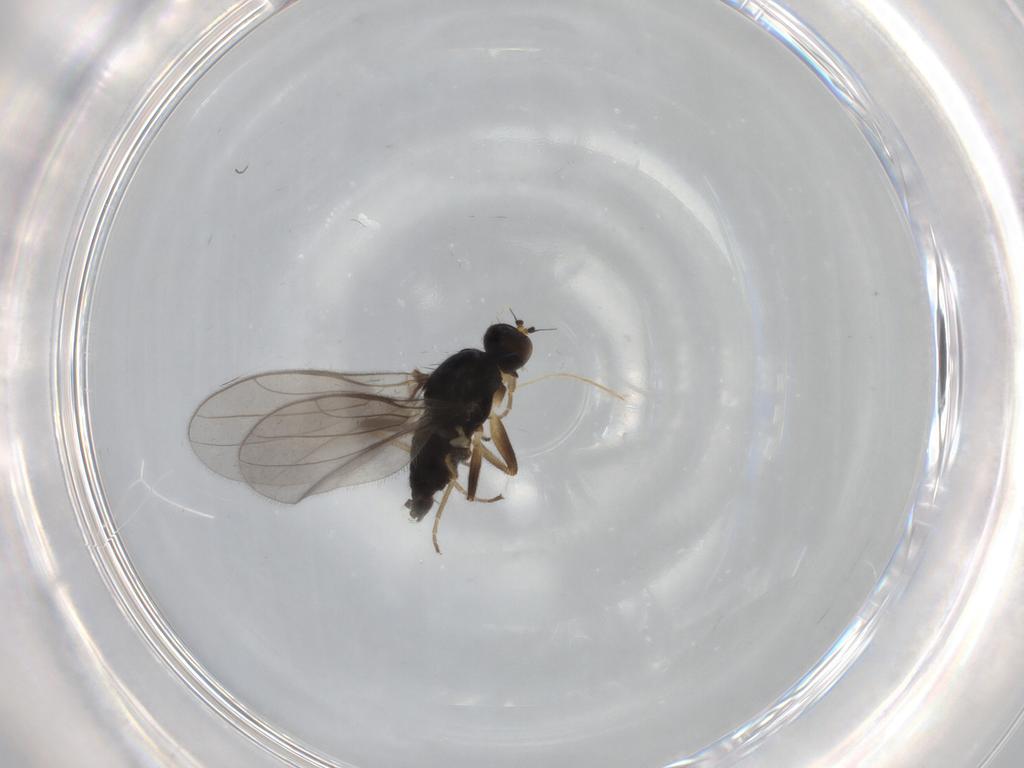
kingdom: Animalia
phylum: Arthropoda
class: Insecta
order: Diptera
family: Hybotidae
